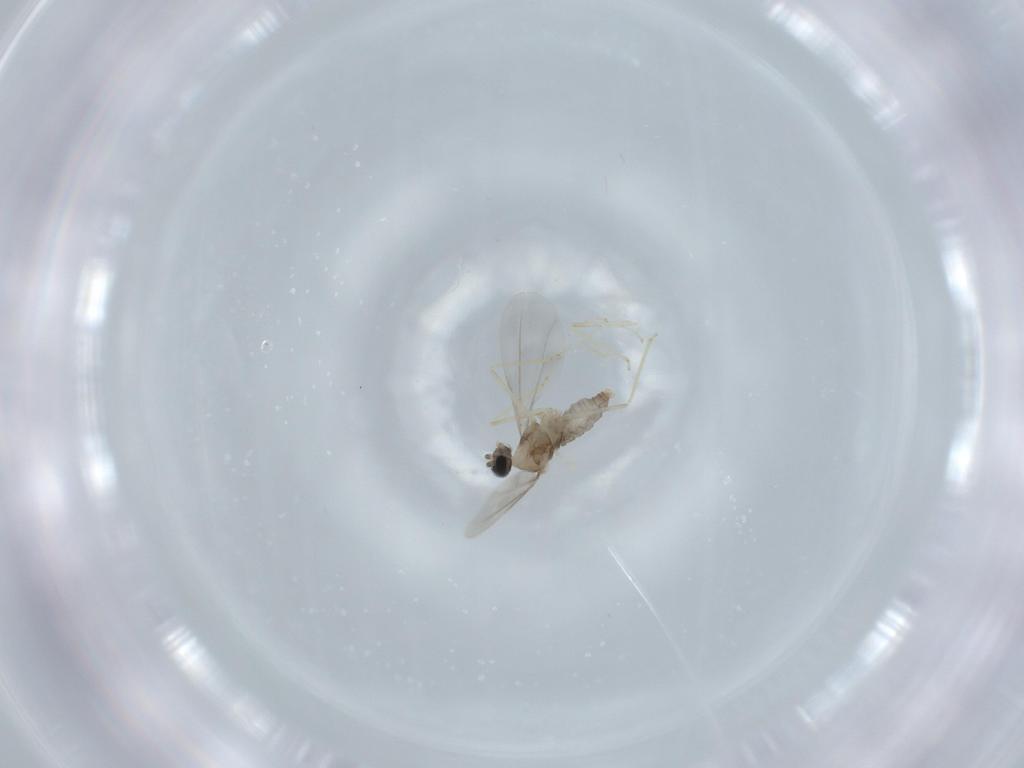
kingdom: Animalia
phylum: Arthropoda
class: Insecta
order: Diptera
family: Cecidomyiidae
